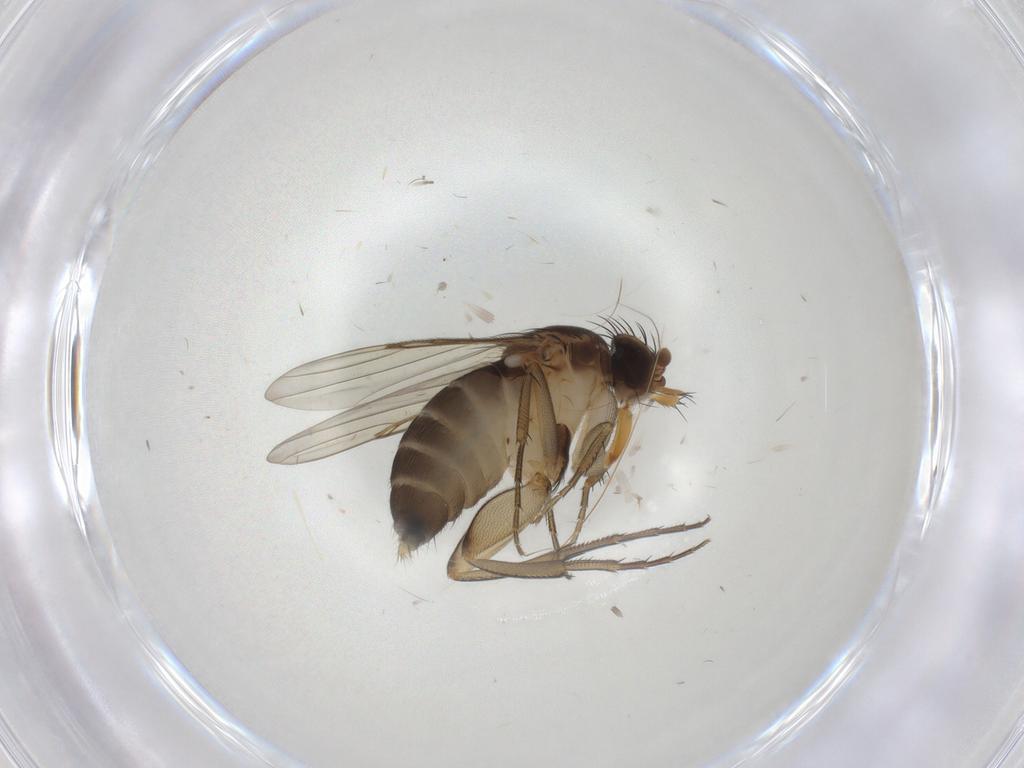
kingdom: Animalia
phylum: Arthropoda
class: Insecta
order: Diptera
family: Phoridae
